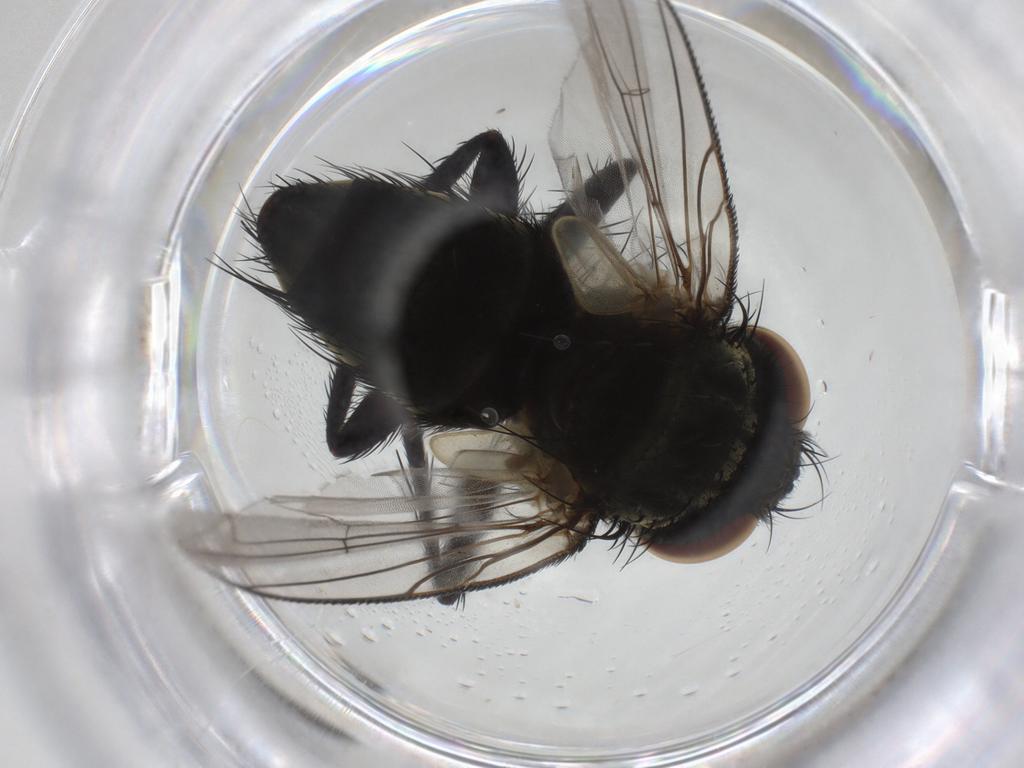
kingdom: Animalia
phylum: Arthropoda
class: Insecta
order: Diptera
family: Tachinidae
